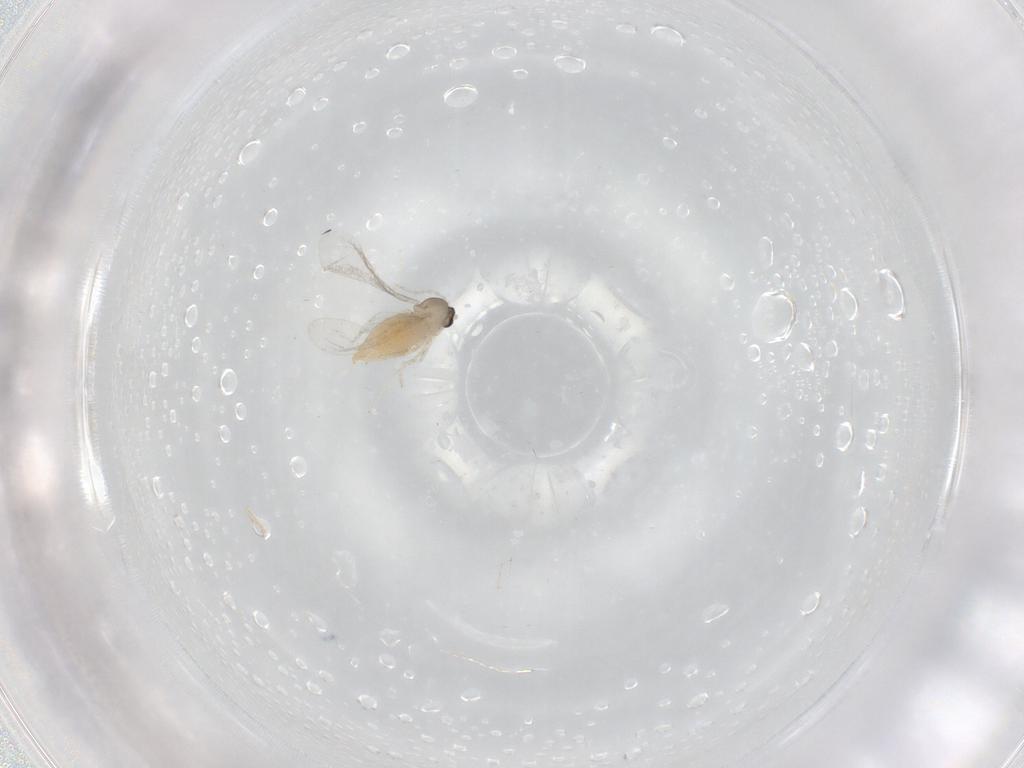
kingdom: Animalia
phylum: Arthropoda
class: Insecta
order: Diptera
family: Cecidomyiidae
